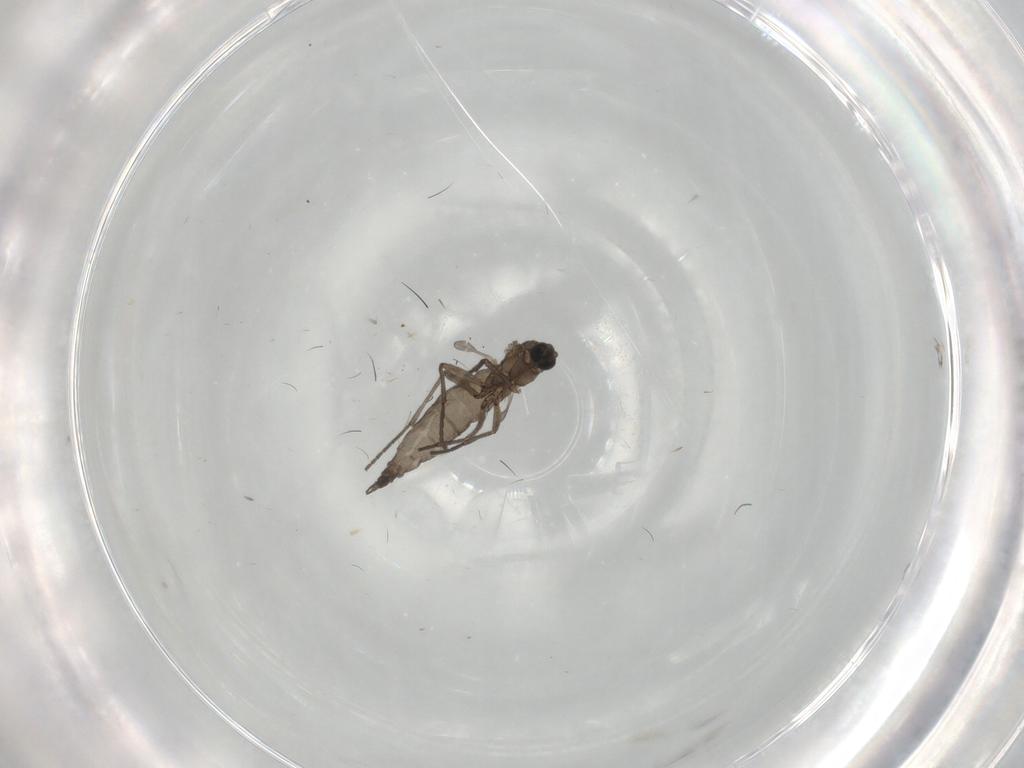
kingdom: Animalia
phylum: Arthropoda
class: Insecta
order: Diptera
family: Sciaridae
